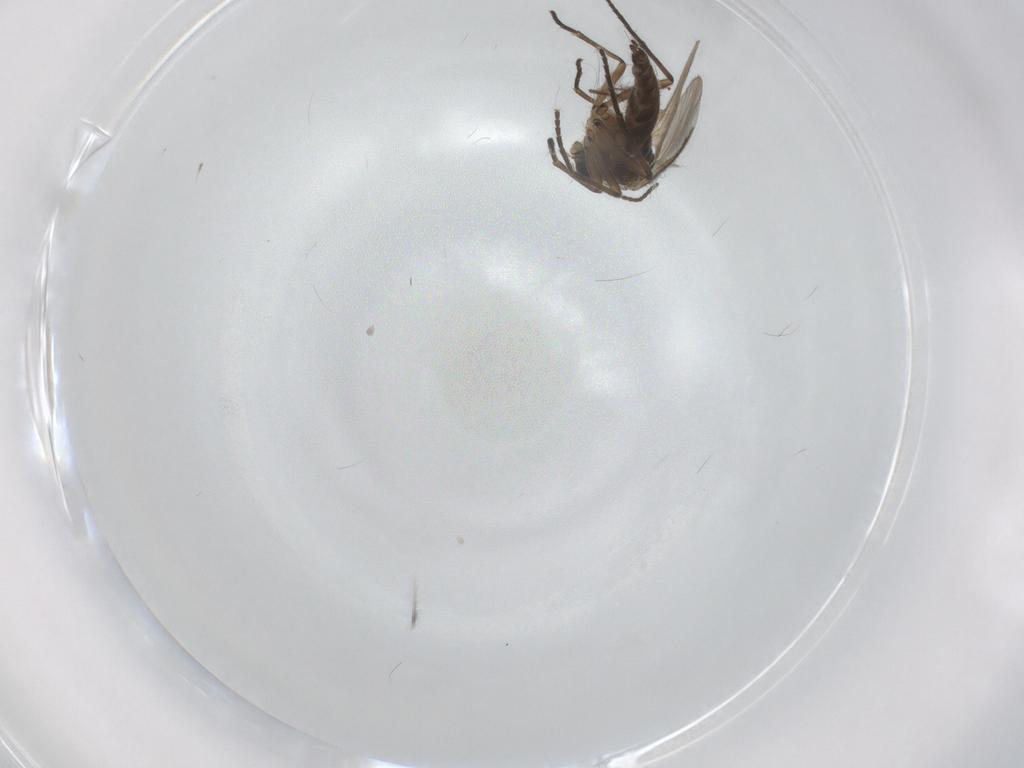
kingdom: Animalia
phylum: Arthropoda
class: Insecta
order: Diptera
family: Sciaridae
